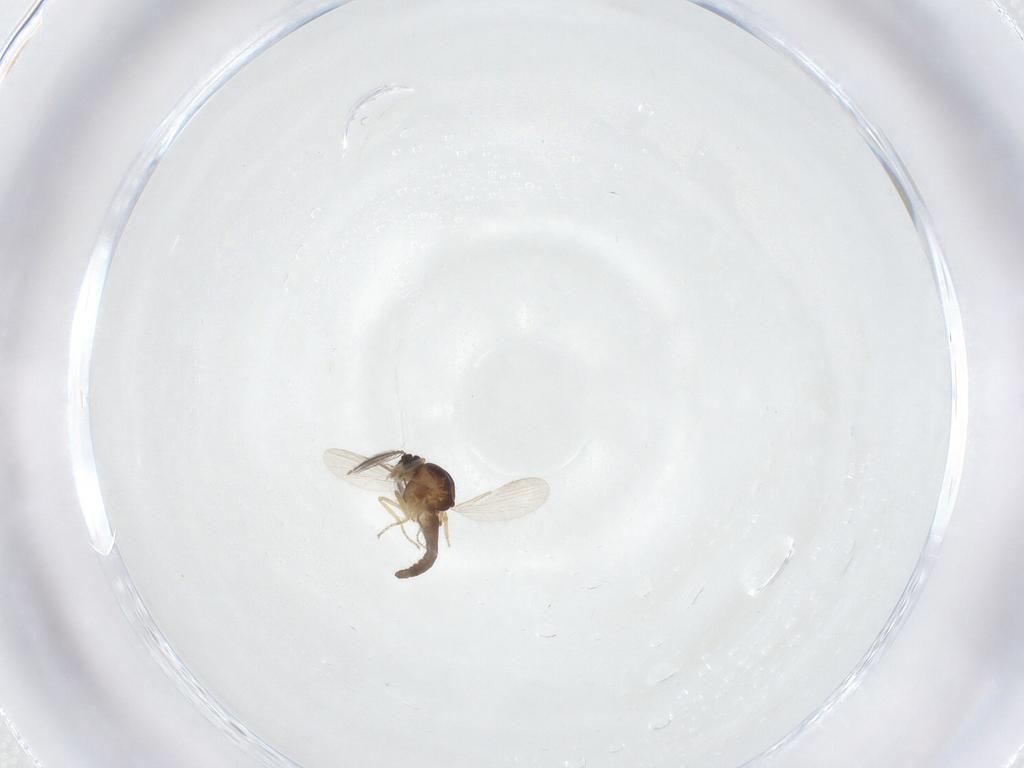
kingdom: Animalia
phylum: Arthropoda
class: Insecta
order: Diptera
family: Ceratopogonidae
